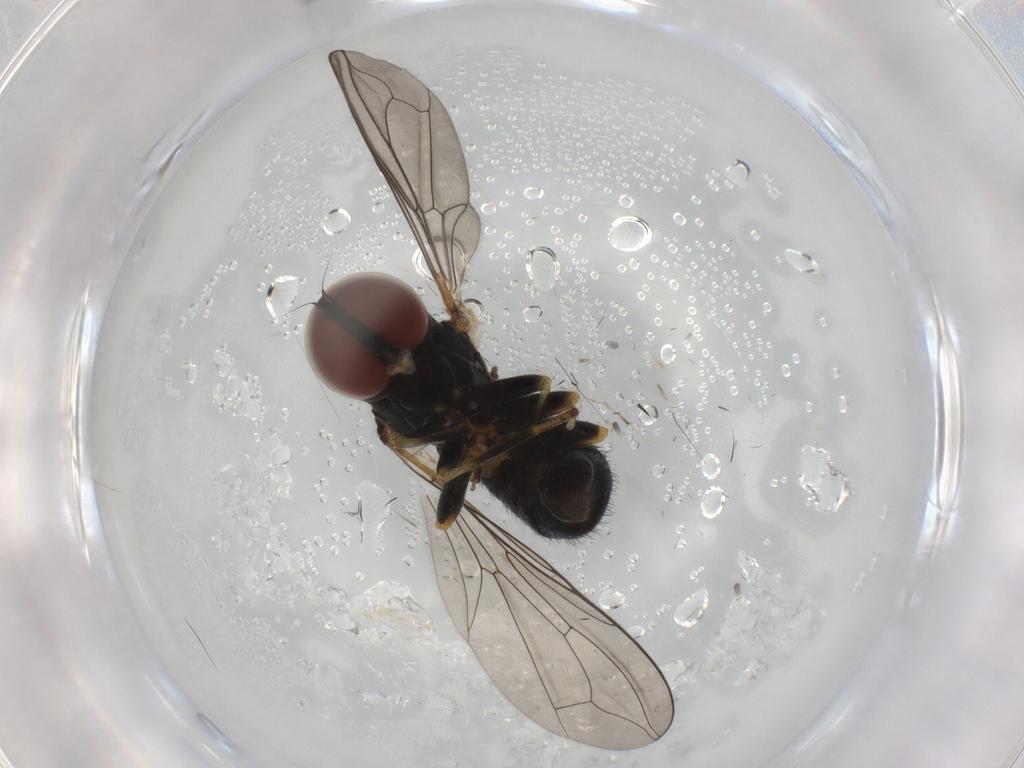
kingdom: Animalia
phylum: Arthropoda
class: Insecta
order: Diptera
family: Pipunculidae
